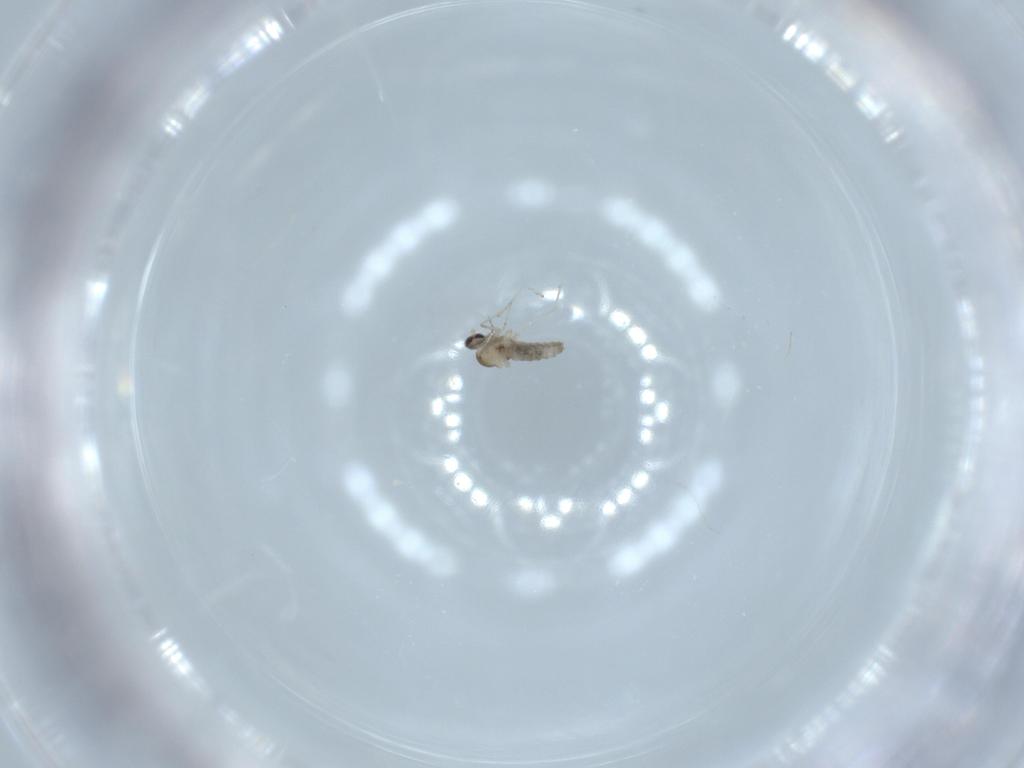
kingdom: Animalia
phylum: Arthropoda
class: Insecta
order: Diptera
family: Cecidomyiidae
